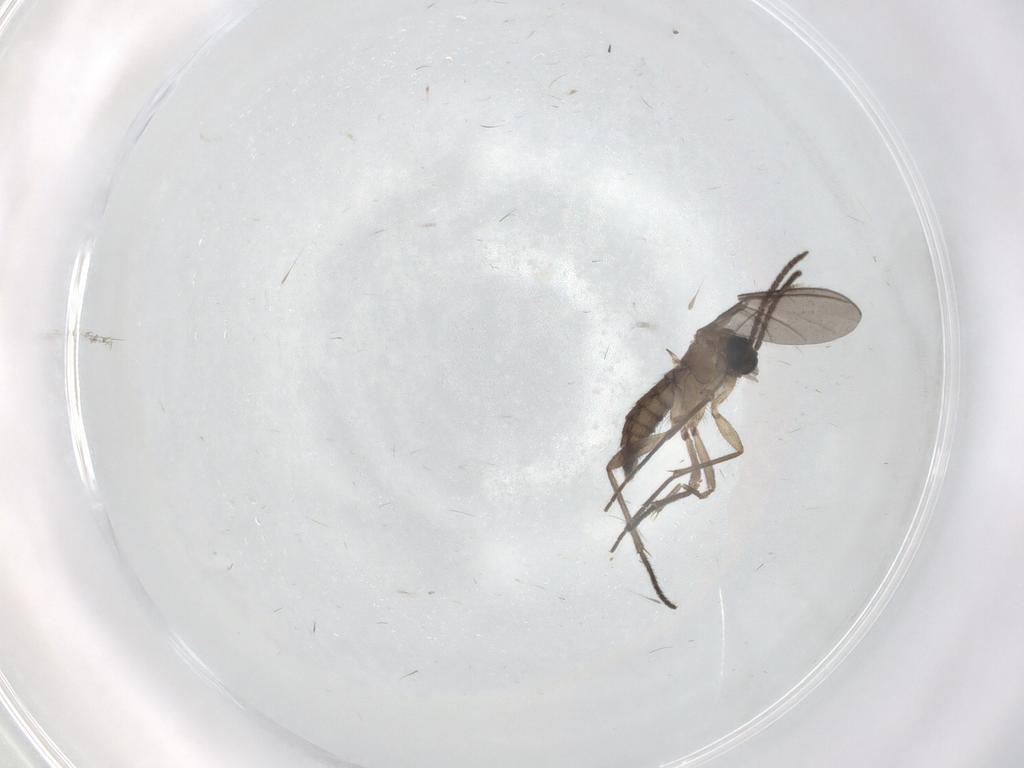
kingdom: Animalia
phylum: Arthropoda
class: Insecta
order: Diptera
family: Sciaridae
